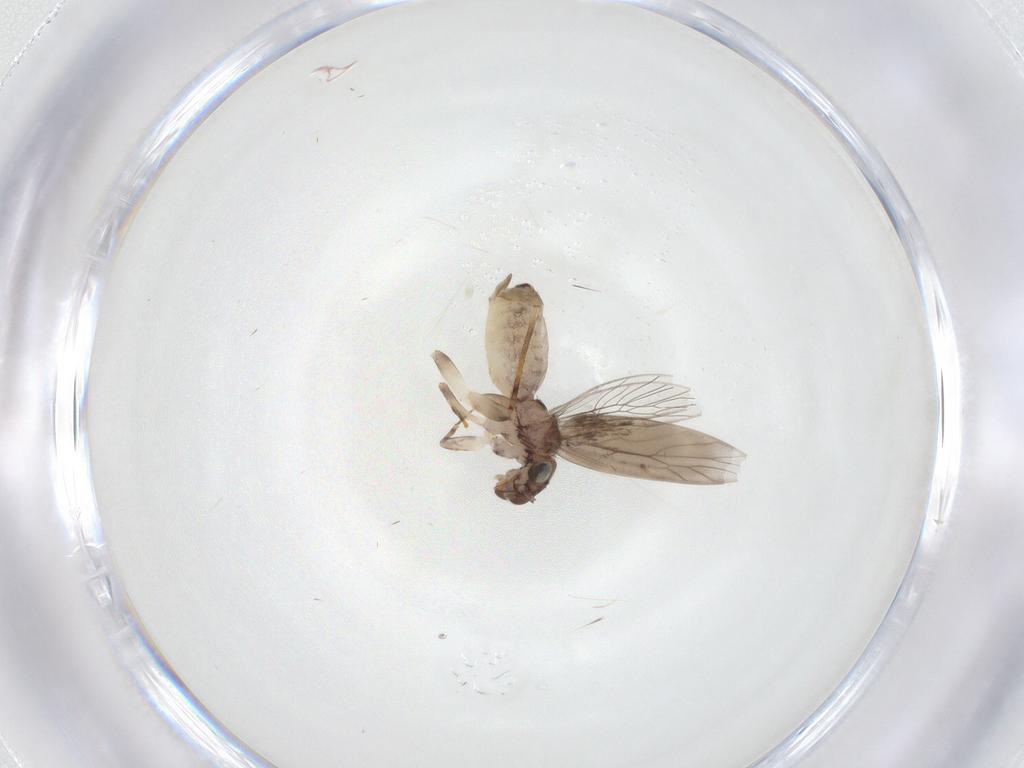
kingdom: Animalia
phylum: Arthropoda
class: Insecta
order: Psocodea
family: Lepidopsocidae
